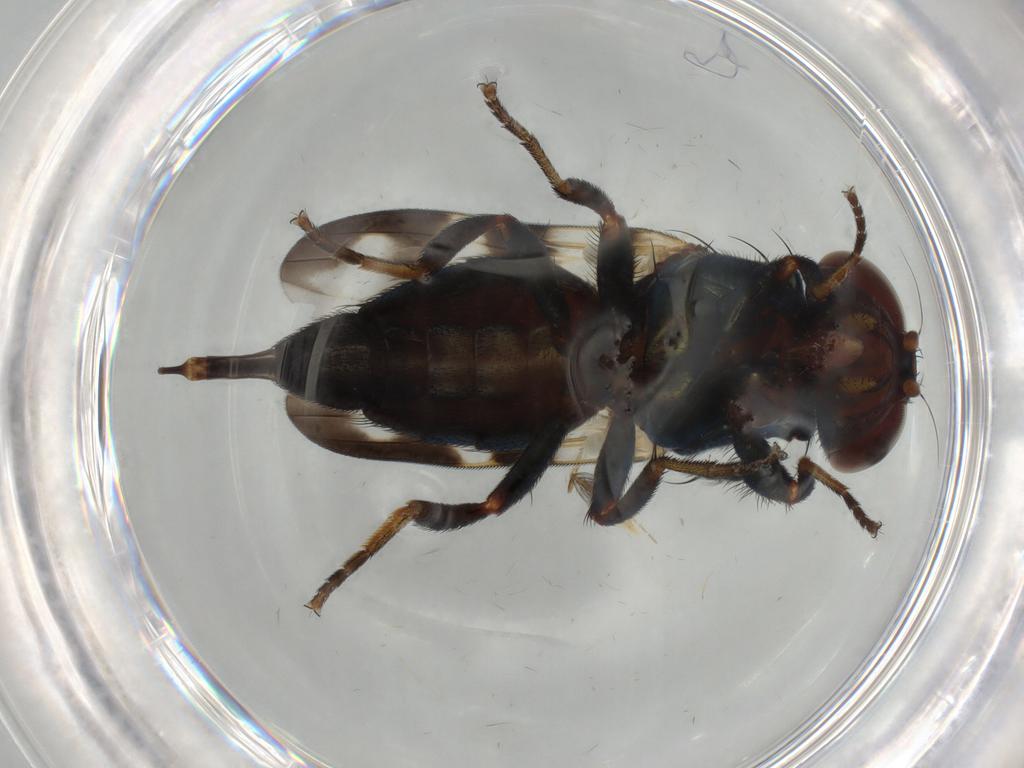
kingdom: Animalia
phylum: Arthropoda
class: Insecta
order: Diptera
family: Ulidiidae
